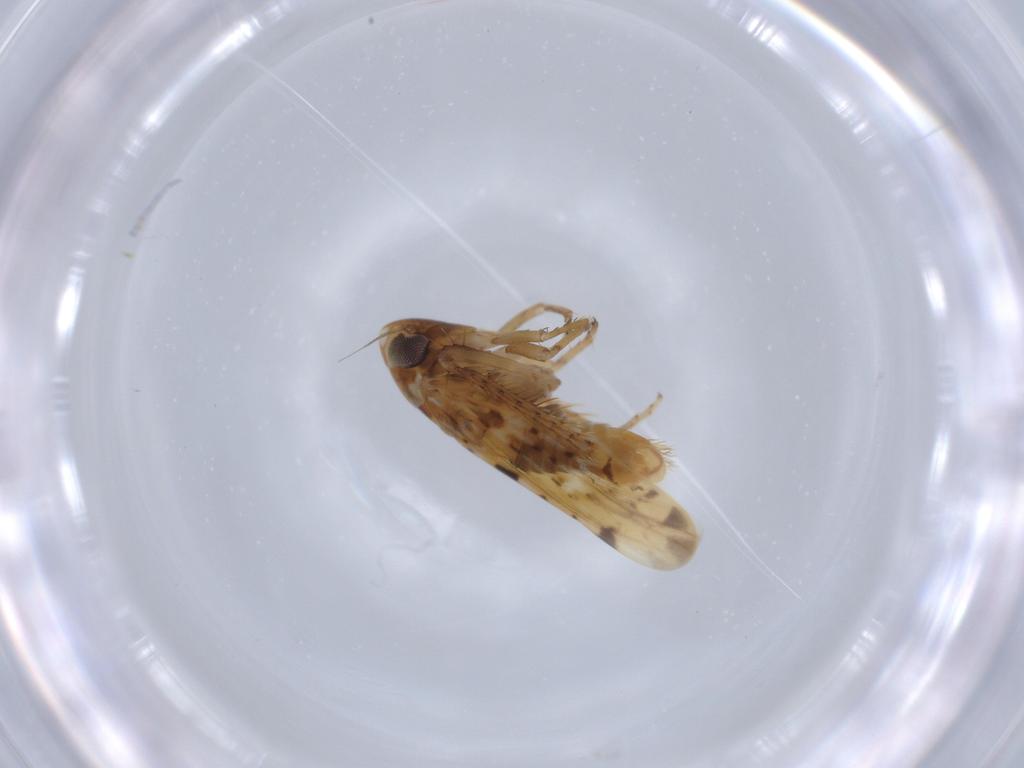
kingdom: Animalia
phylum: Arthropoda
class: Insecta
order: Hemiptera
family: Cicadellidae
